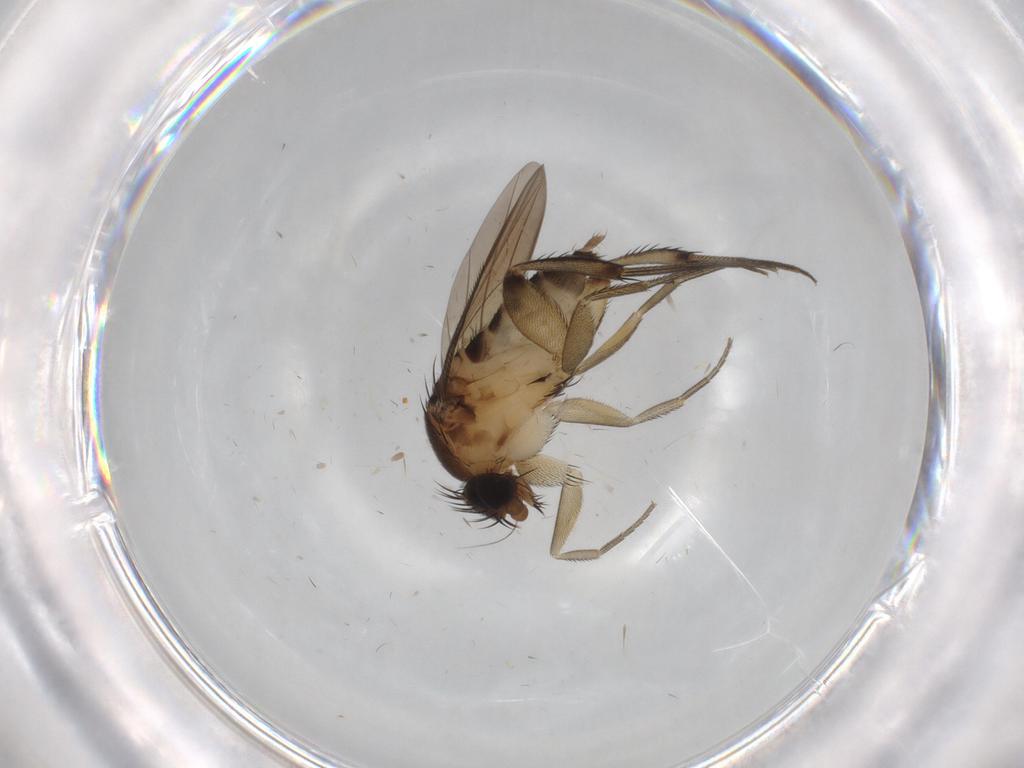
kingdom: Animalia
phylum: Arthropoda
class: Insecta
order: Diptera
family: Phoridae
